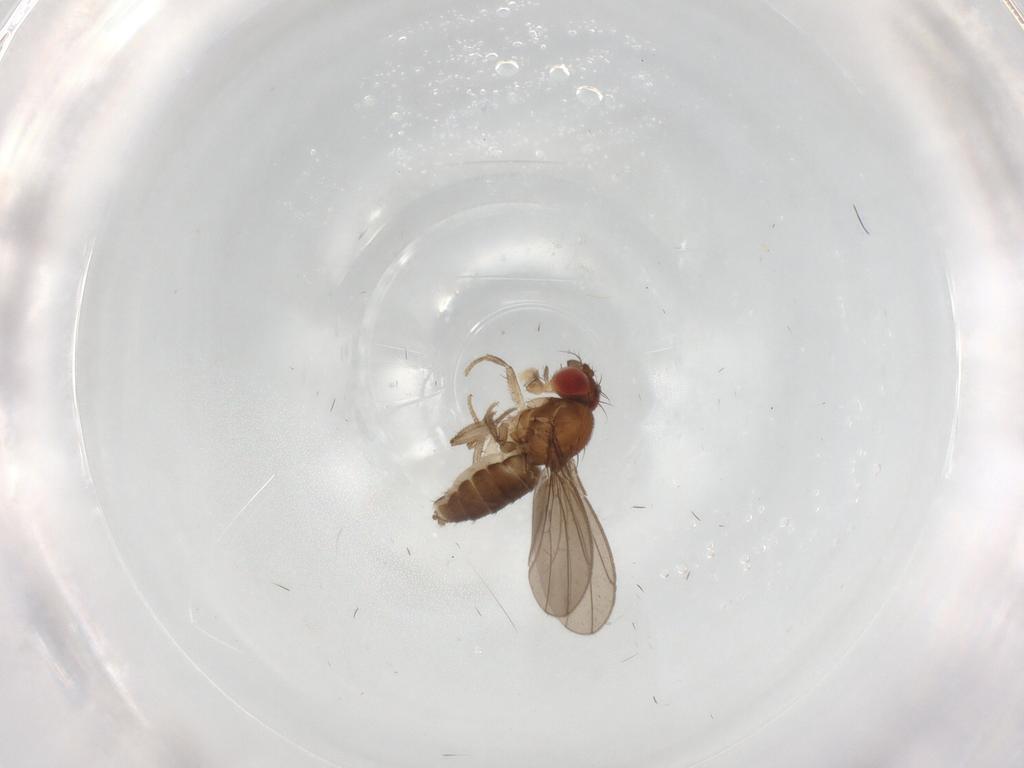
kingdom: Animalia
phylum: Arthropoda
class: Insecta
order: Diptera
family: Drosophilidae
